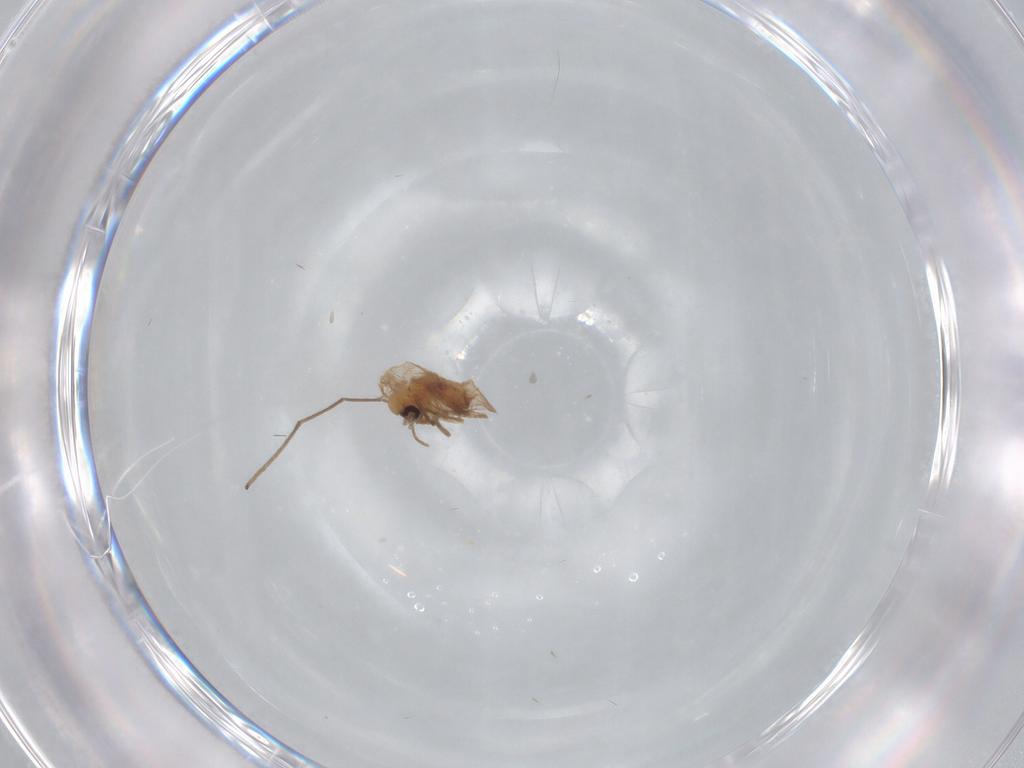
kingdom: Animalia
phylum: Arthropoda
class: Insecta
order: Diptera
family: Psychodidae
